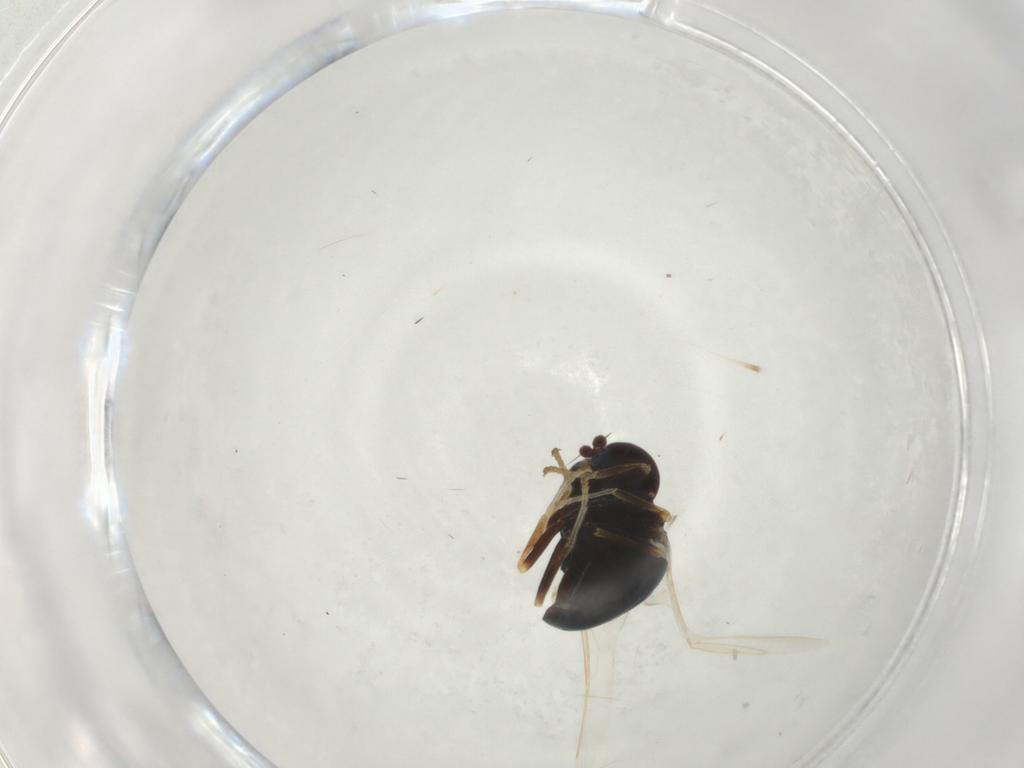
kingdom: Animalia
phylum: Arthropoda
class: Insecta
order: Diptera
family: Stratiomyidae
